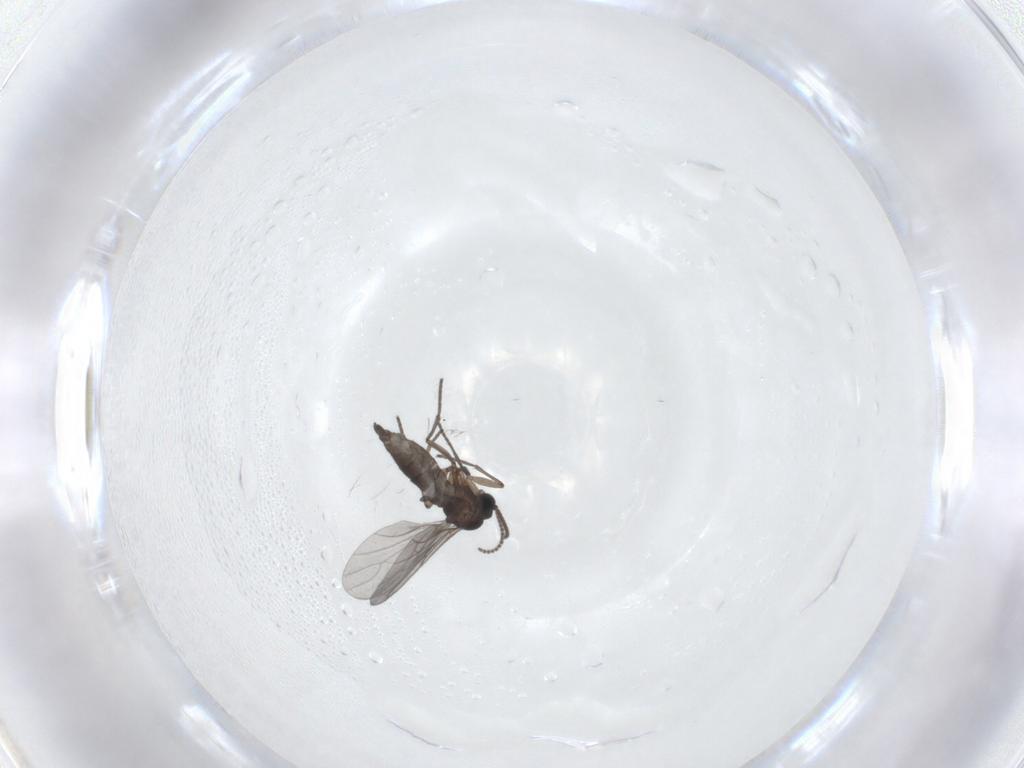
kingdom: Animalia
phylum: Arthropoda
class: Insecta
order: Diptera
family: Sciaridae
